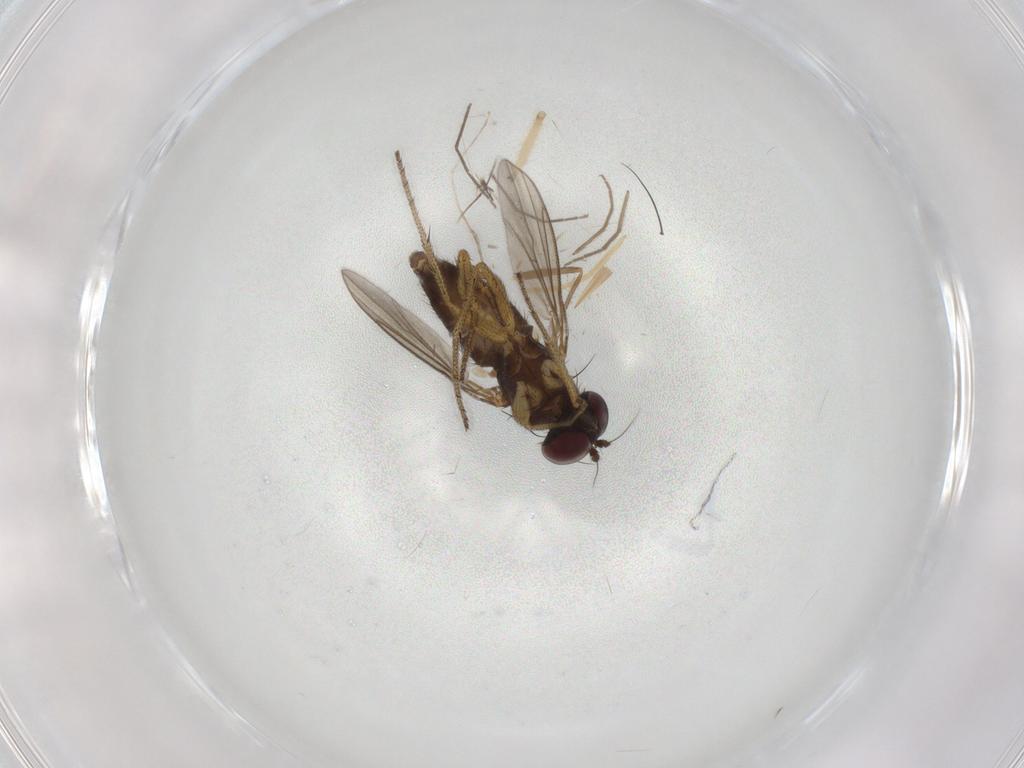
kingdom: Animalia
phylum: Arthropoda
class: Insecta
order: Diptera
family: Cecidomyiidae
